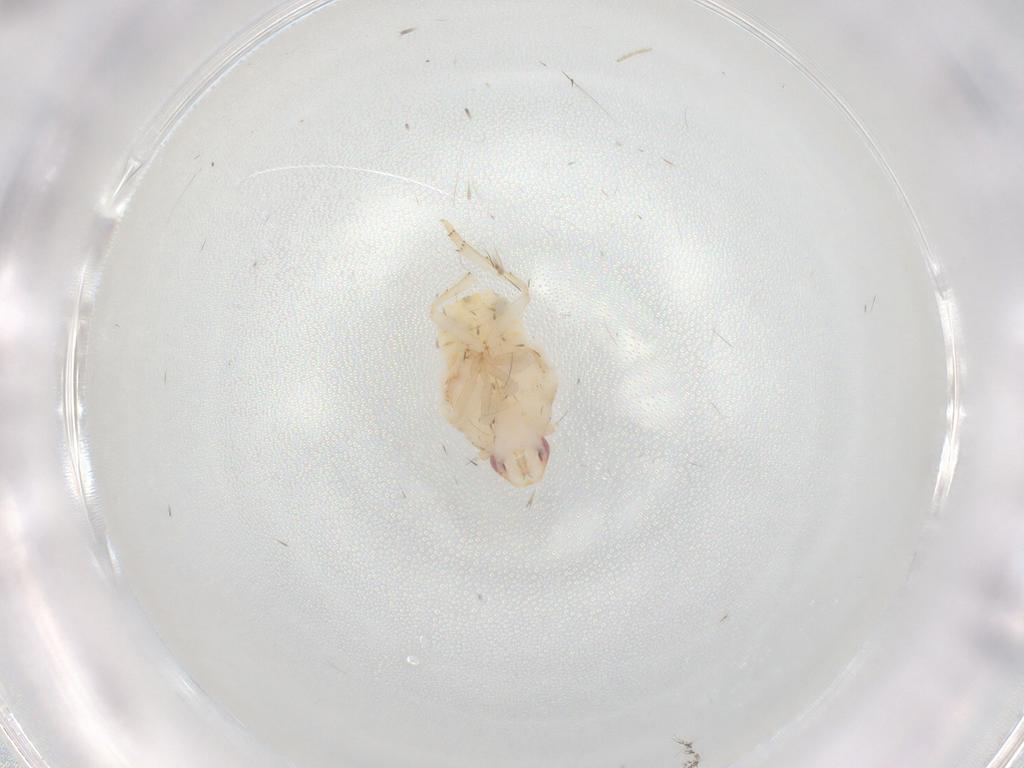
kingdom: Animalia
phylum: Arthropoda
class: Insecta
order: Hemiptera
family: Flatidae
